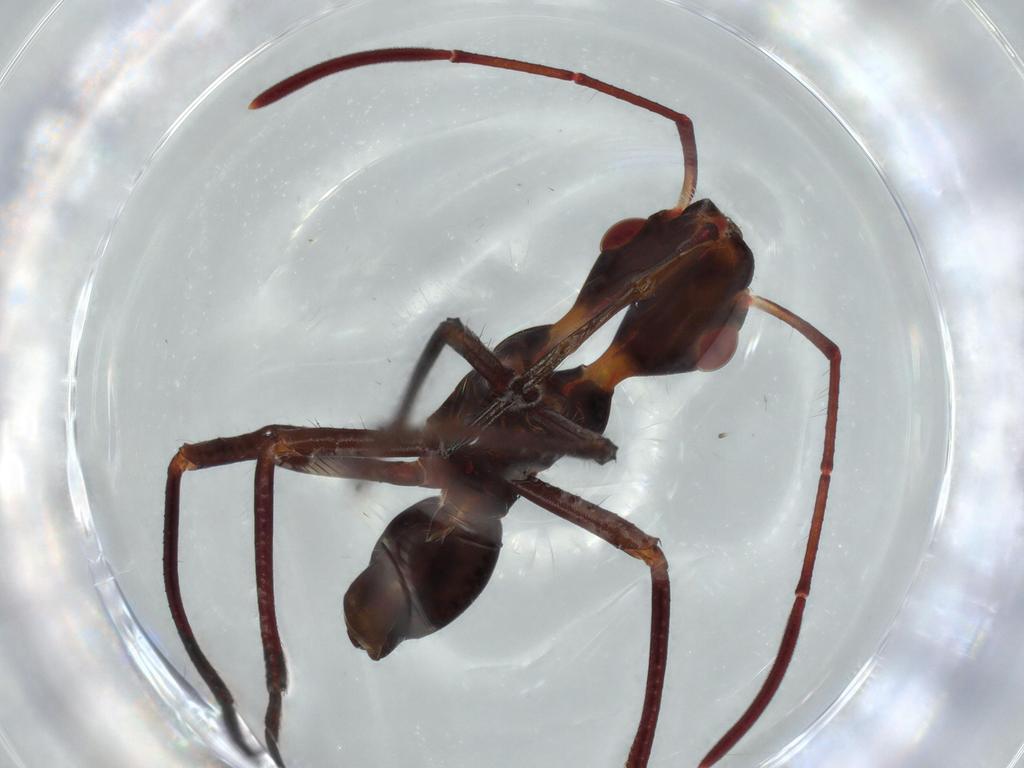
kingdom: Animalia
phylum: Arthropoda
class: Insecta
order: Hemiptera
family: Alydidae
